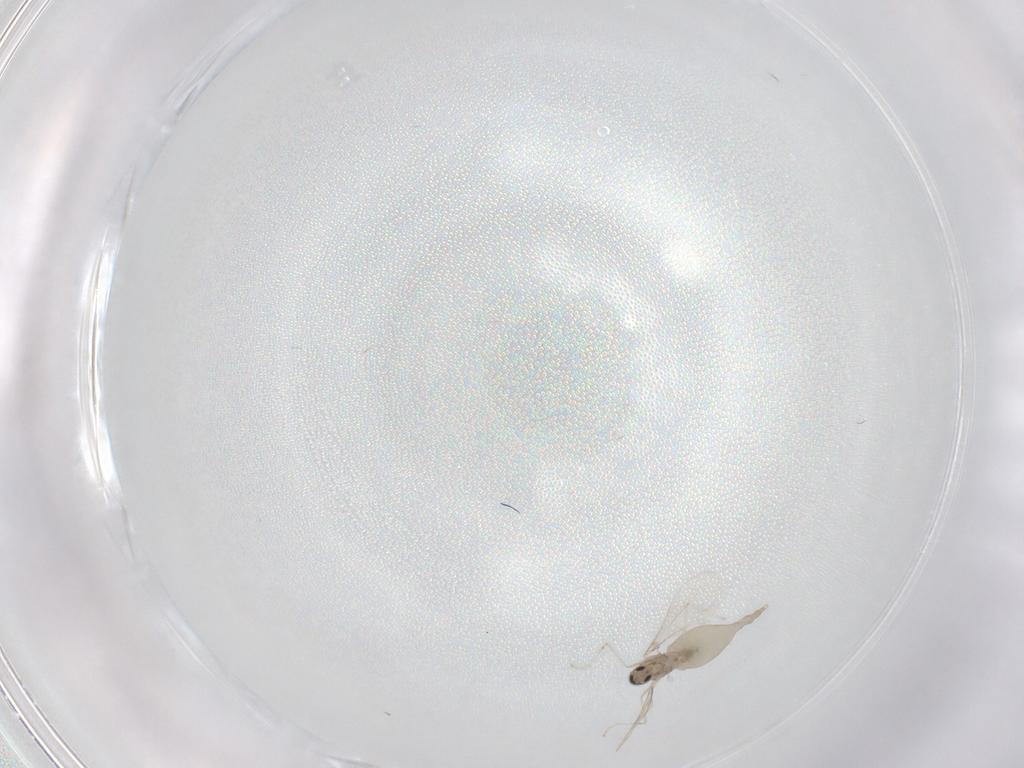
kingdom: Animalia
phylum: Arthropoda
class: Insecta
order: Diptera
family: Cecidomyiidae
